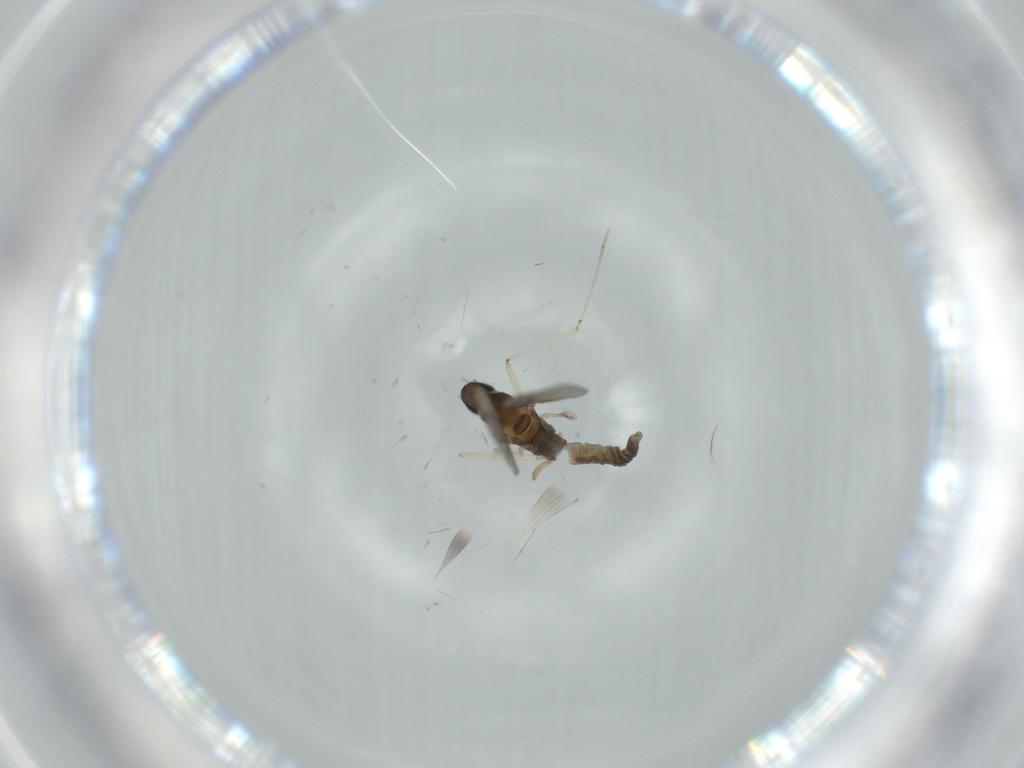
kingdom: Animalia
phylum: Arthropoda
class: Insecta
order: Diptera
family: Cecidomyiidae
